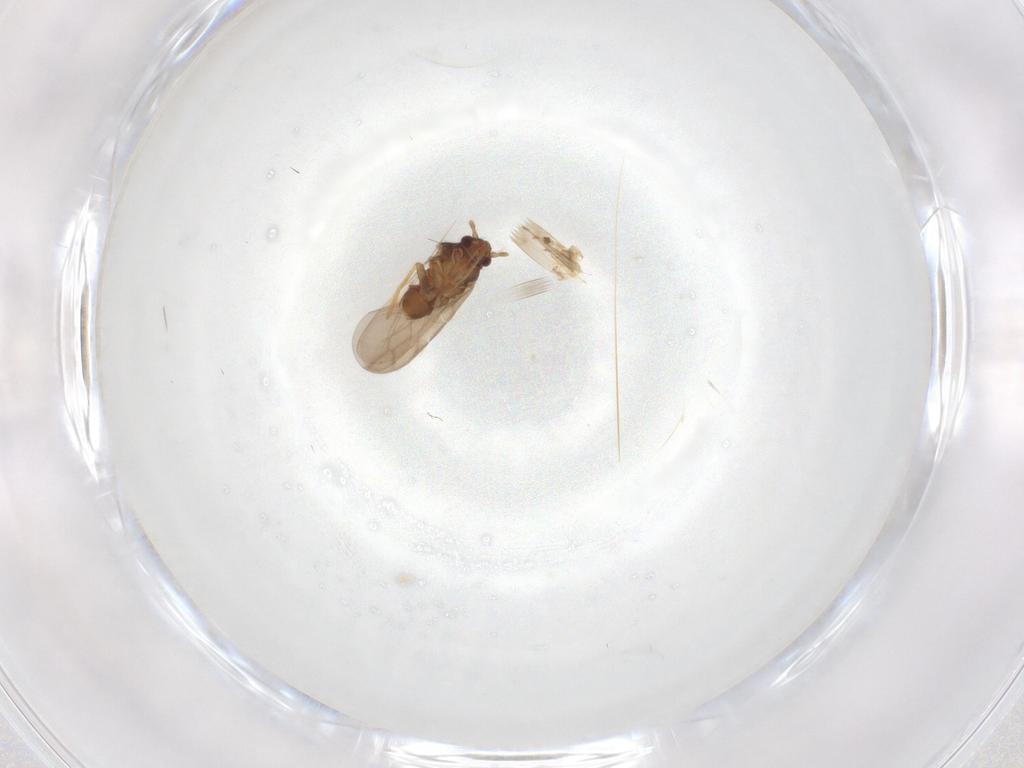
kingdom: Animalia
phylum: Arthropoda
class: Insecta
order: Hemiptera
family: Ceratocombidae
